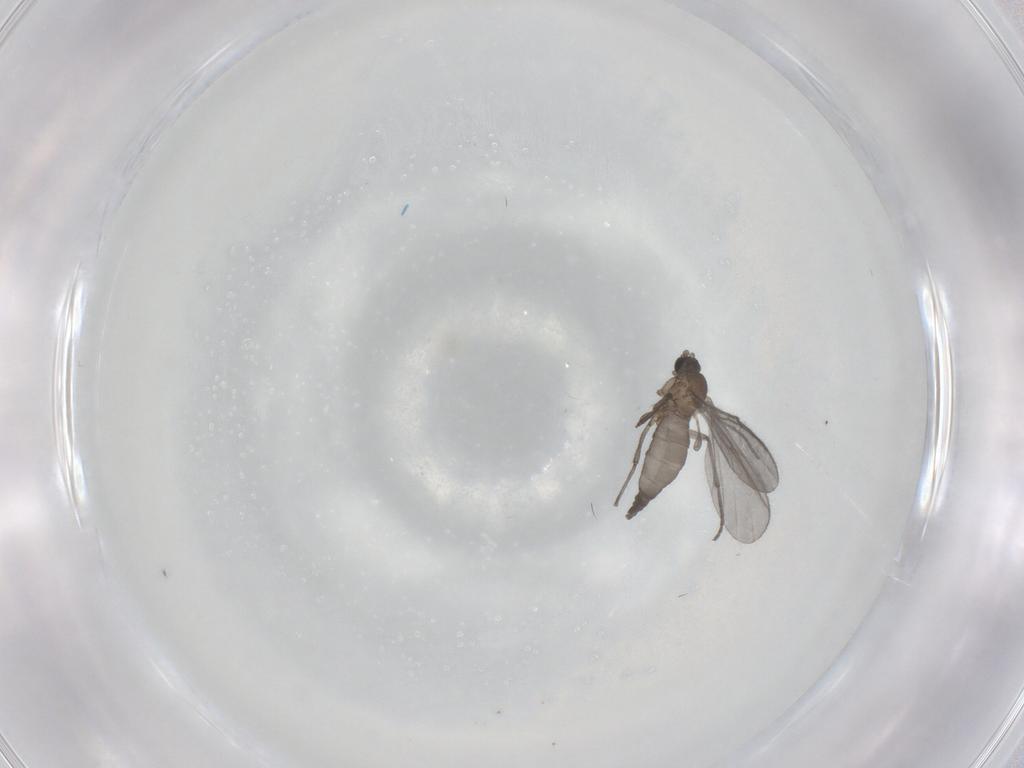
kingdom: Animalia
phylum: Arthropoda
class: Insecta
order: Diptera
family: Sciaridae
